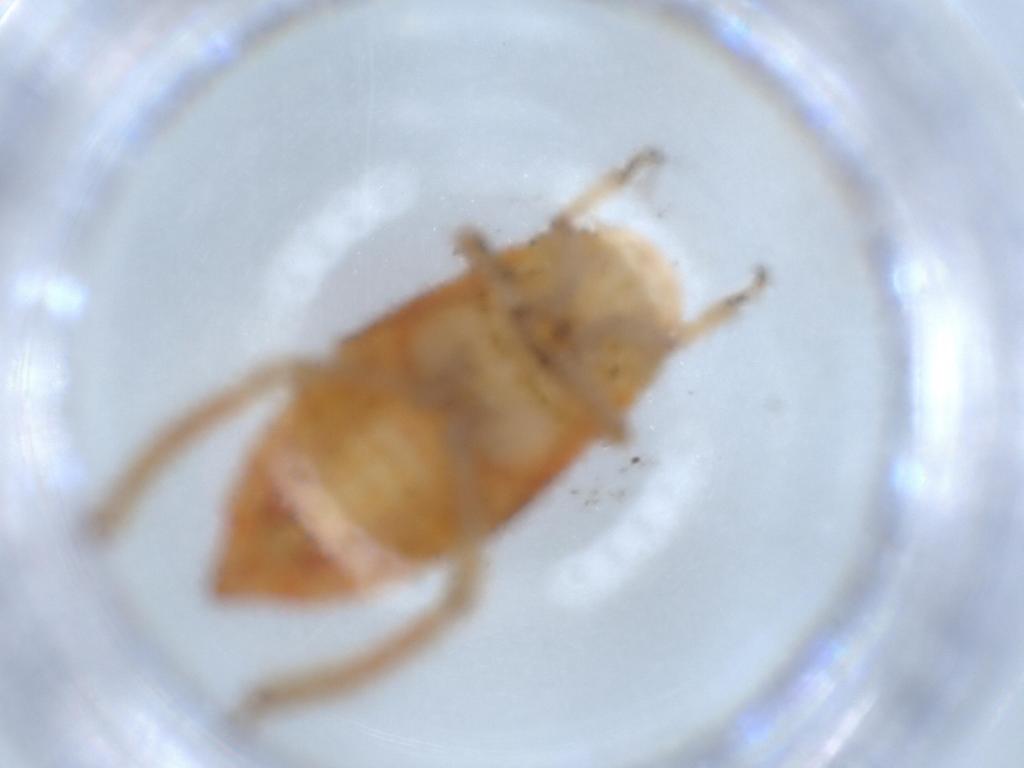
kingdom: Animalia
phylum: Arthropoda
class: Insecta
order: Hemiptera
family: Cicadellidae
